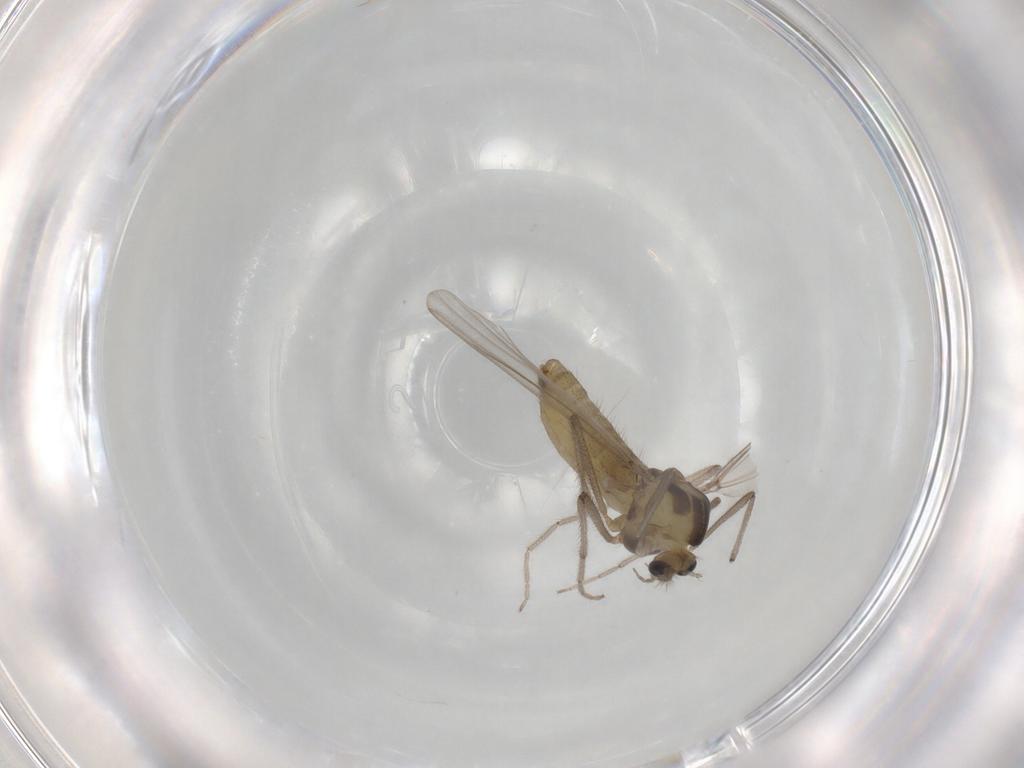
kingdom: Animalia
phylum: Arthropoda
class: Insecta
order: Diptera
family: Chironomidae
